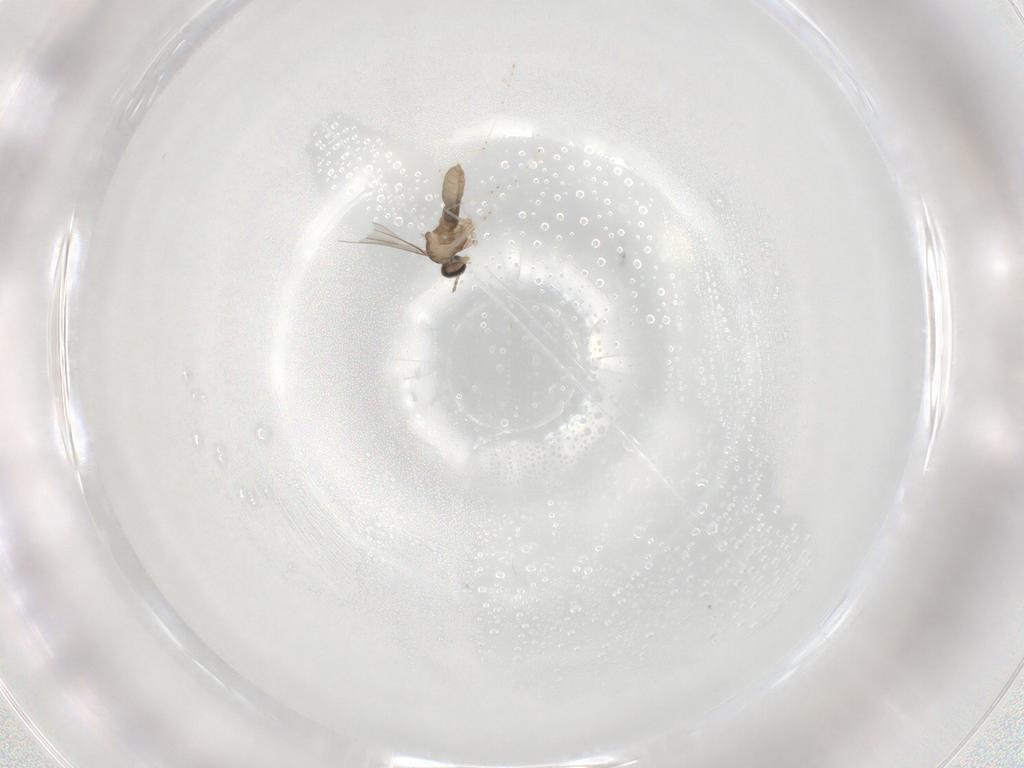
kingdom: Animalia
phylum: Arthropoda
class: Insecta
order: Diptera
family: Cecidomyiidae
